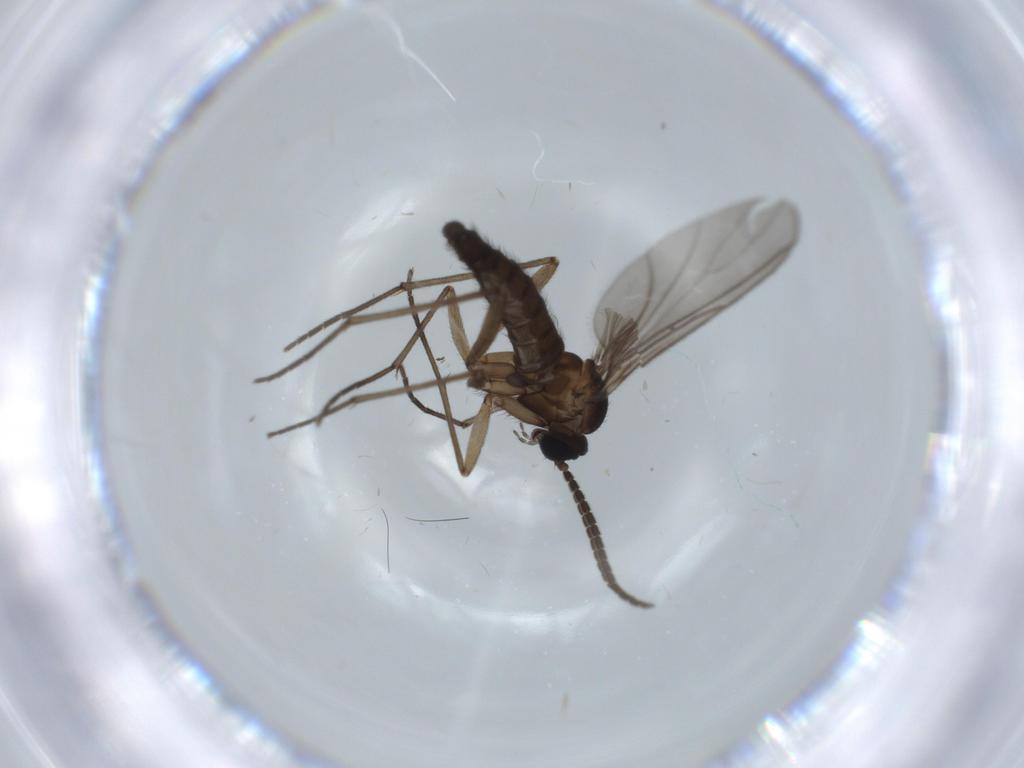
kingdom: Animalia
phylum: Arthropoda
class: Insecta
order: Diptera
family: Sciaridae
